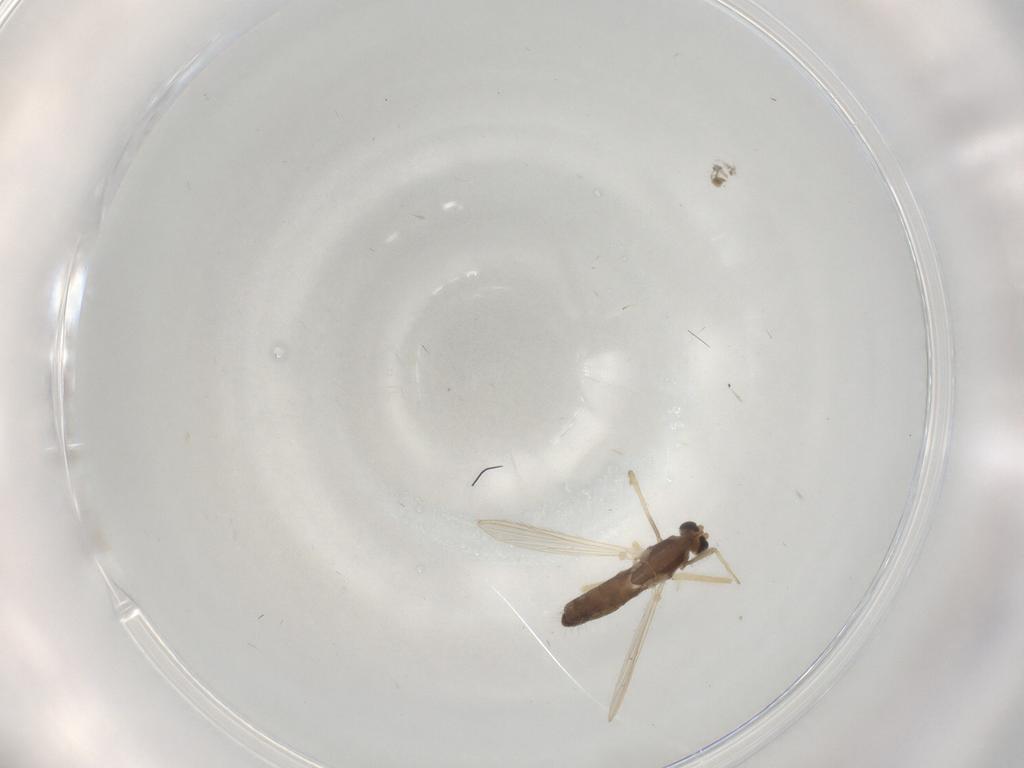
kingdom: Animalia
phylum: Arthropoda
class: Insecta
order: Diptera
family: Chironomidae
